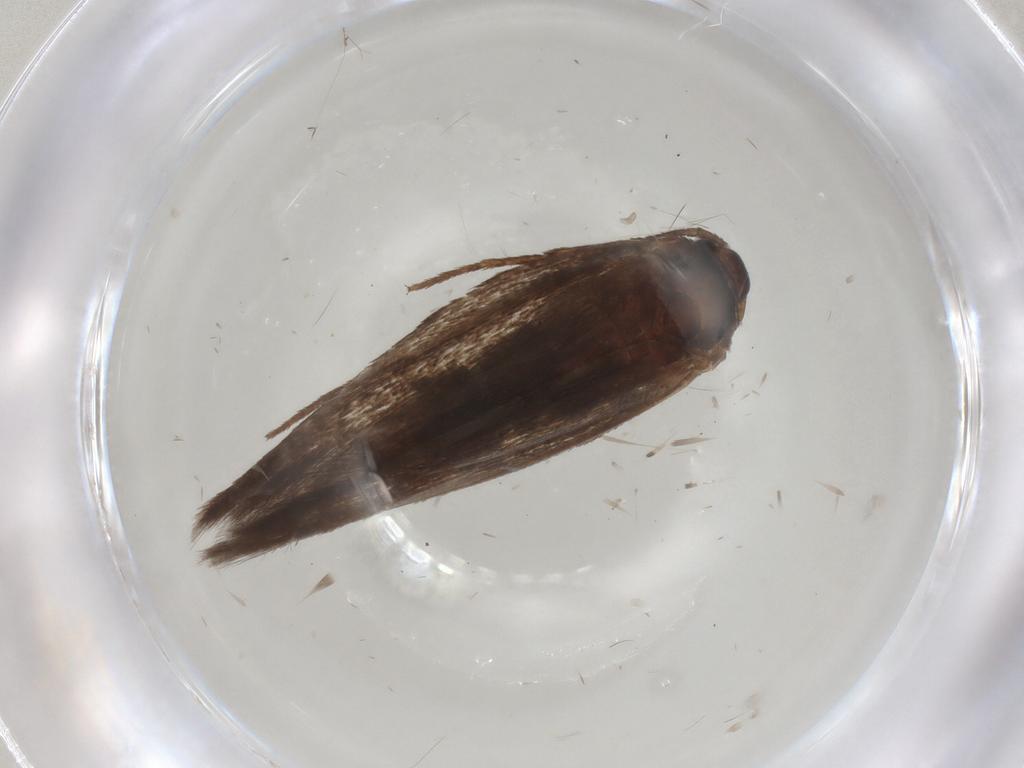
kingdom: Animalia
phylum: Arthropoda
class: Insecta
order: Lepidoptera
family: Scythrididae
